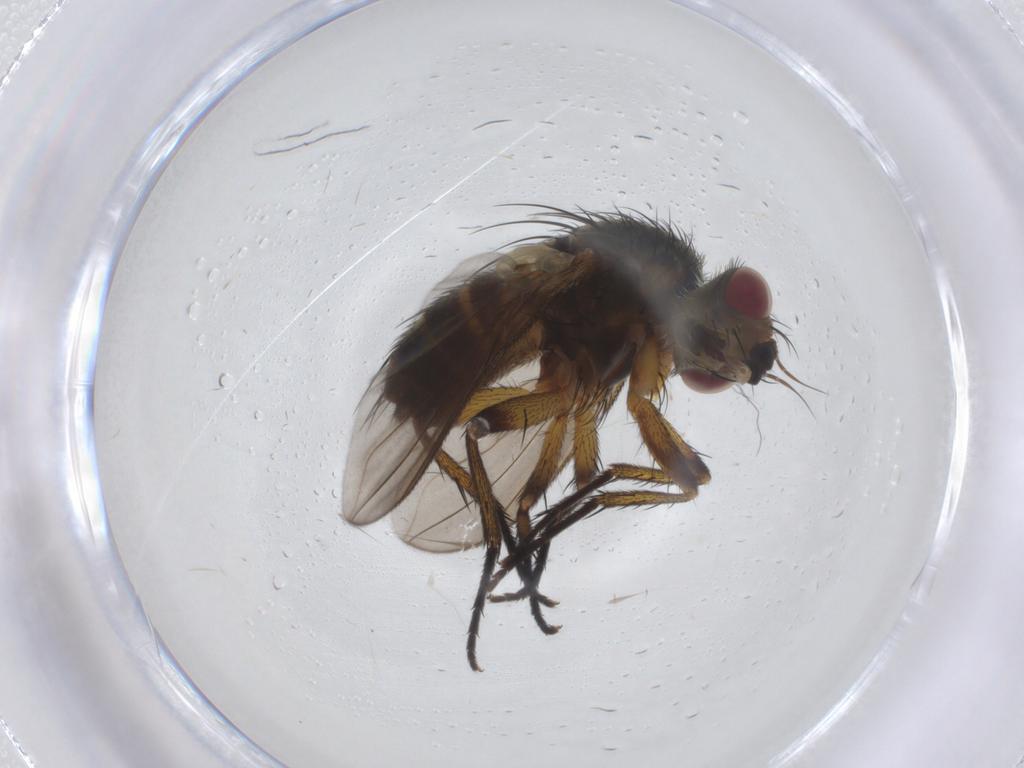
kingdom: Animalia
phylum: Arthropoda
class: Insecta
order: Diptera
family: Tachinidae
